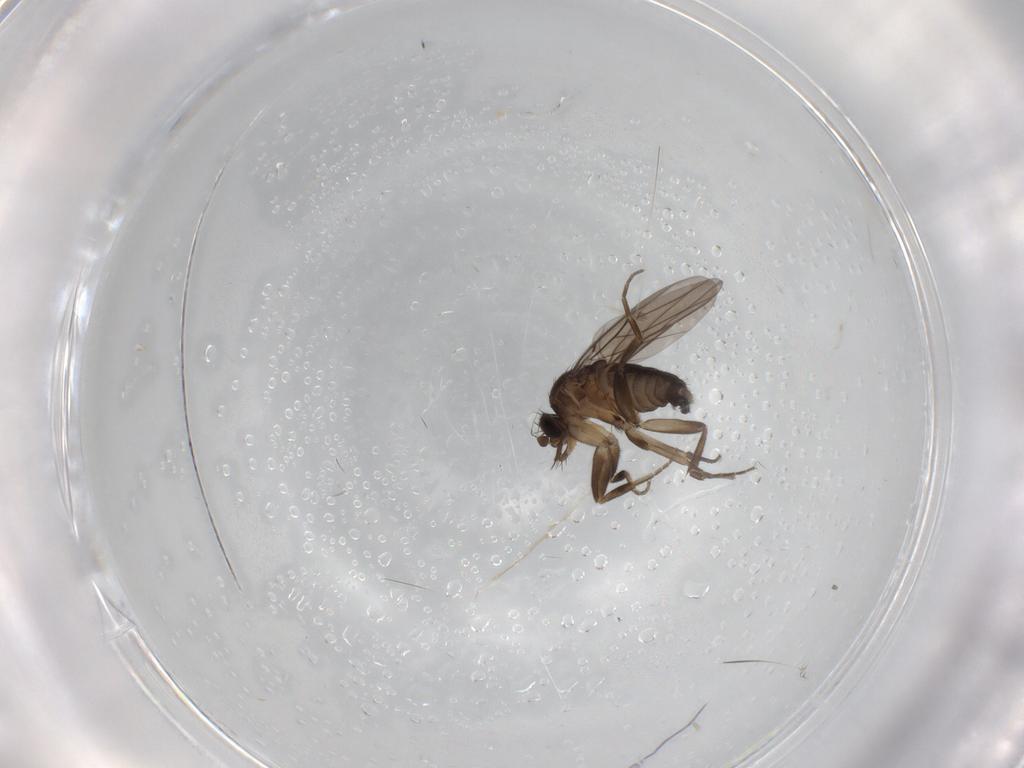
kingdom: Animalia
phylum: Arthropoda
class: Insecta
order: Diptera
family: Phoridae
